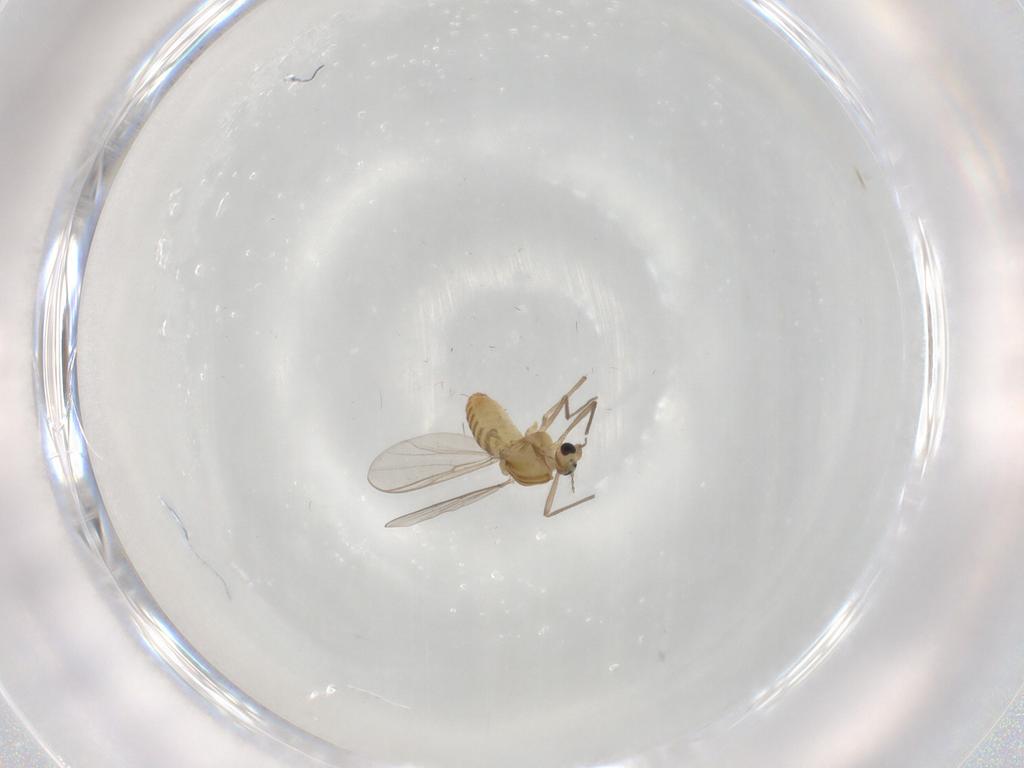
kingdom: Animalia
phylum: Arthropoda
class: Insecta
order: Diptera
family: Chironomidae
